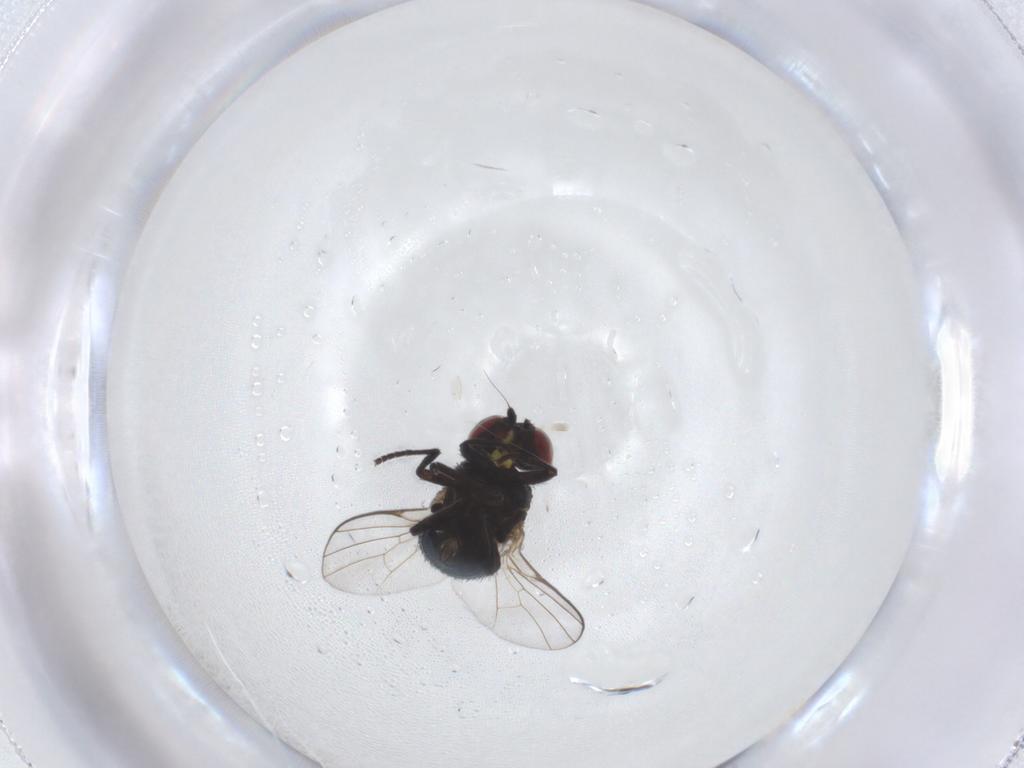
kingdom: Animalia
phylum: Arthropoda
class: Insecta
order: Diptera
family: Agromyzidae
